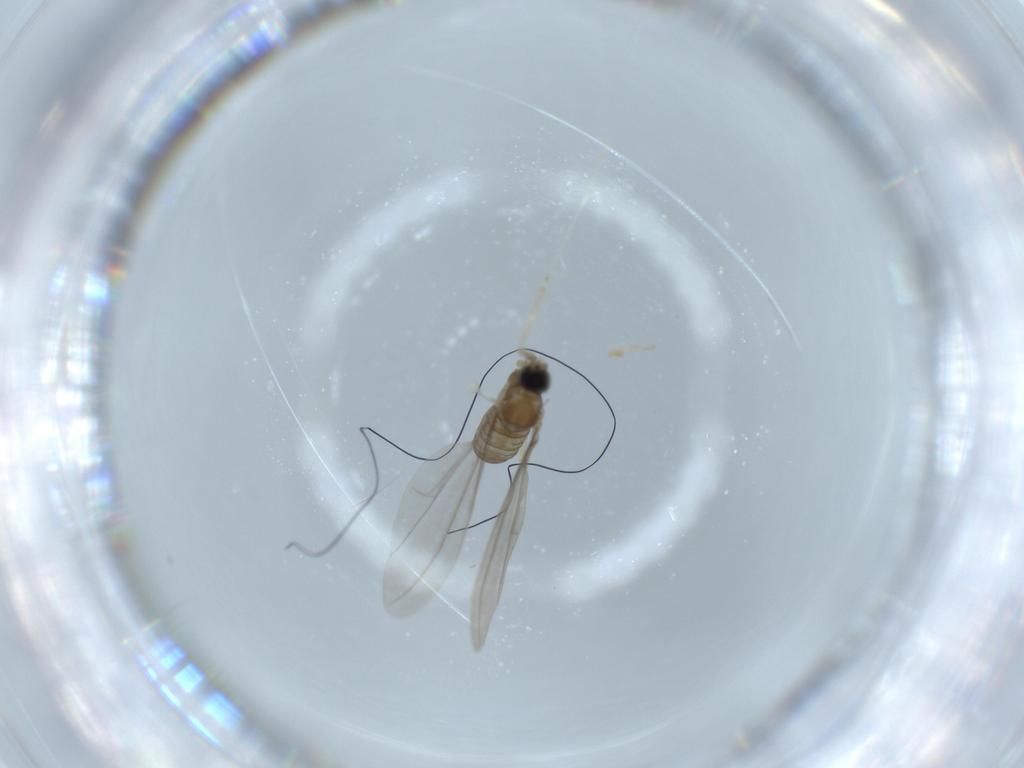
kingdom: Animalia
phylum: Arthropoda
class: Insecta
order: Diptera
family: Cecidomyiidae
